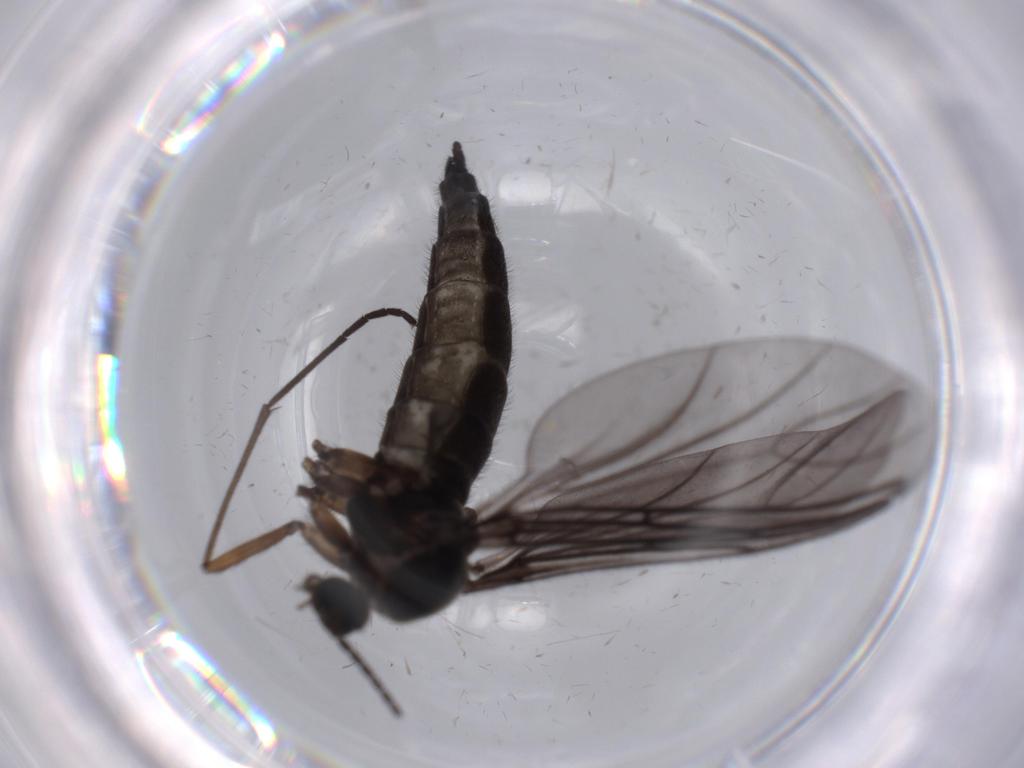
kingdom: Animalia
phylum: Arthropoda
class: Insecta
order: Diptera
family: Sciaridae
